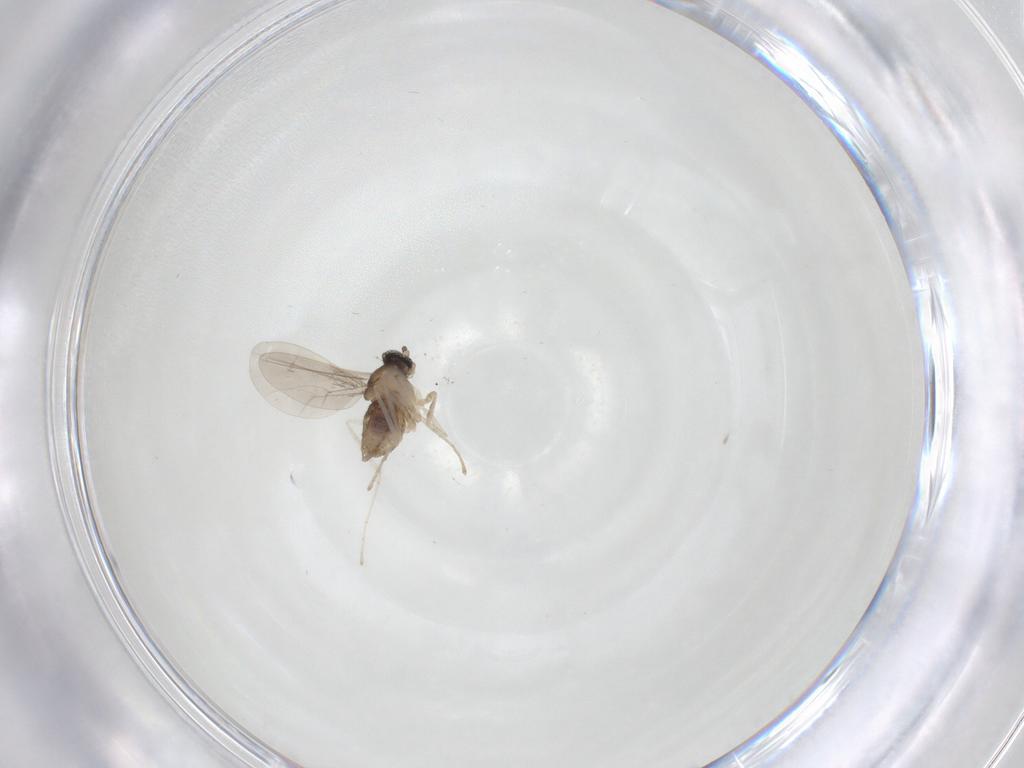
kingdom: Animalia
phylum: Arthropoda
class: Insecta
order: Diptera
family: Cecidomyiidae
